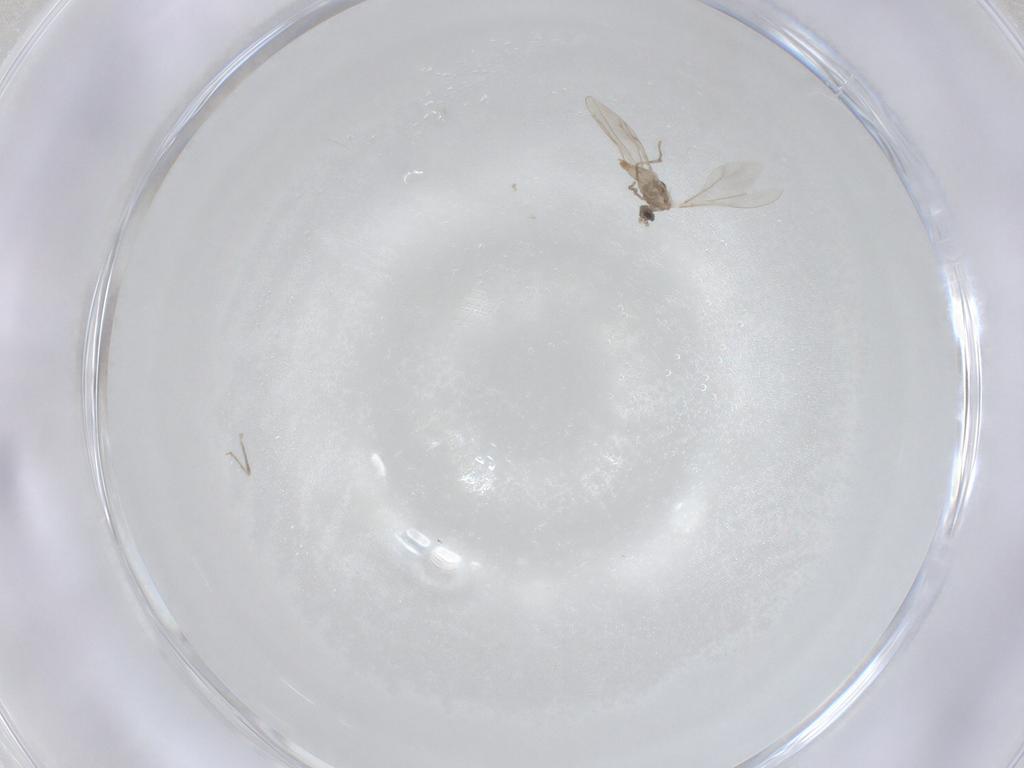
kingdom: Animalia
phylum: Arthropoda
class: Insecta
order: Diptera
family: Cecidomyiidae
